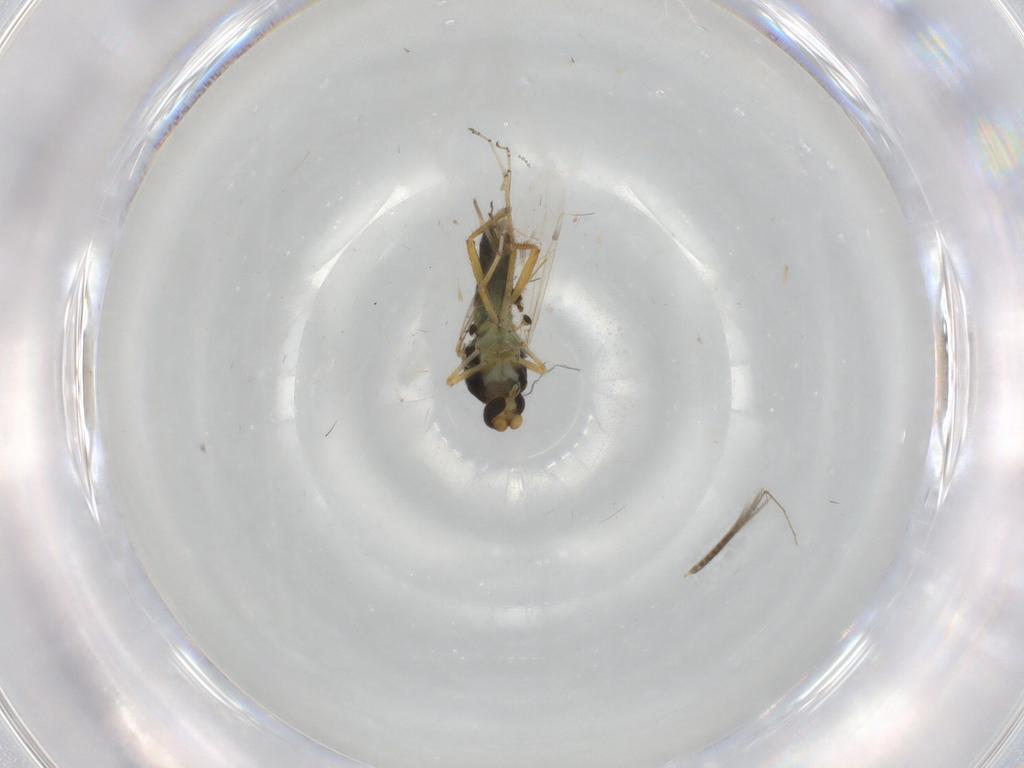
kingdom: Animalia
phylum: Arthropoda
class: Insecta
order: Diptera
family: Ceratopogonidae
